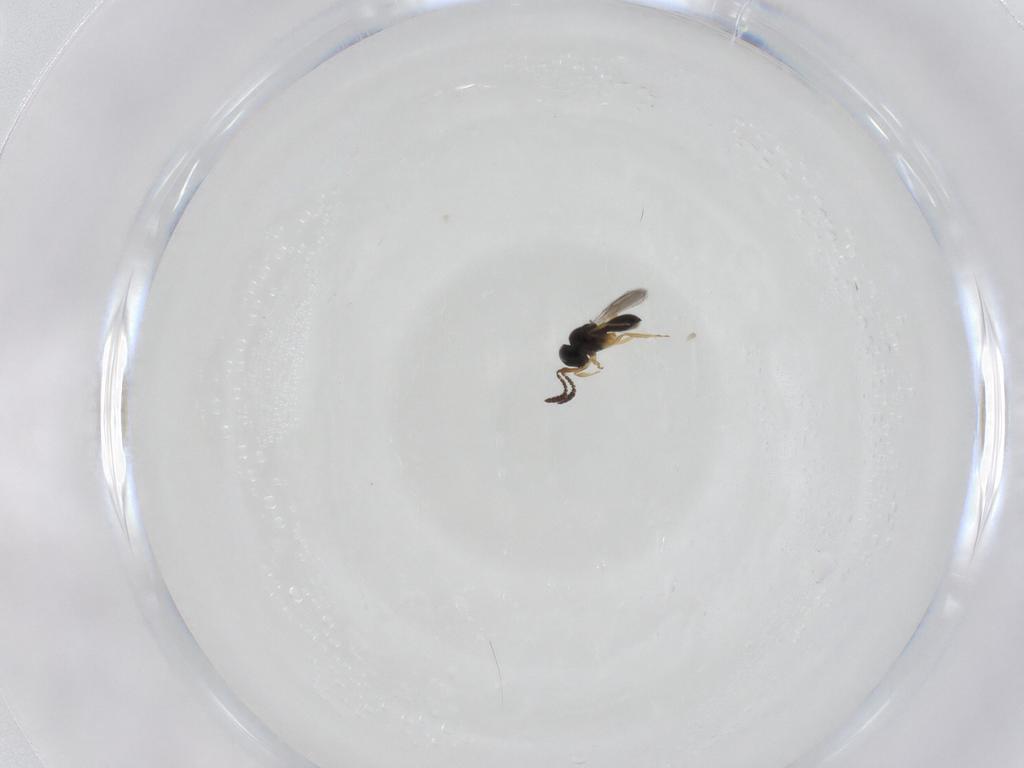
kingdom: Animalia
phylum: Arthropoda
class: Insecta
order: Hymenoptera
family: Scelionidae
